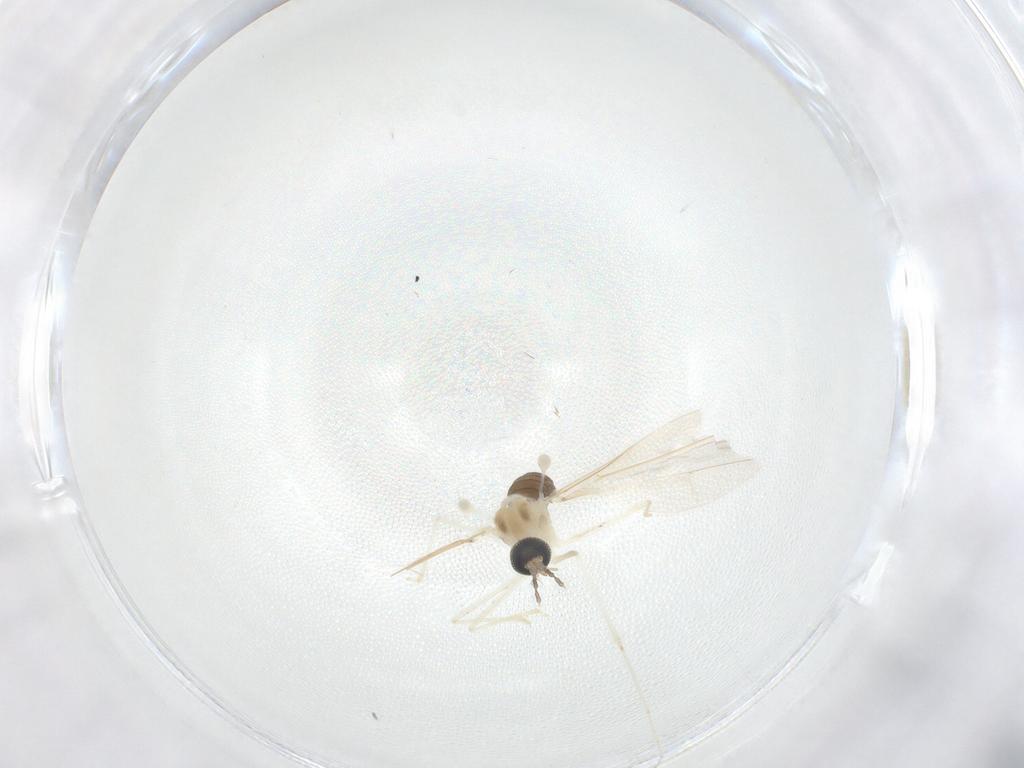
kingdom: Animalia
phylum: Arthropoda
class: Insecta
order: Diptera
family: Cecidomyiidae
